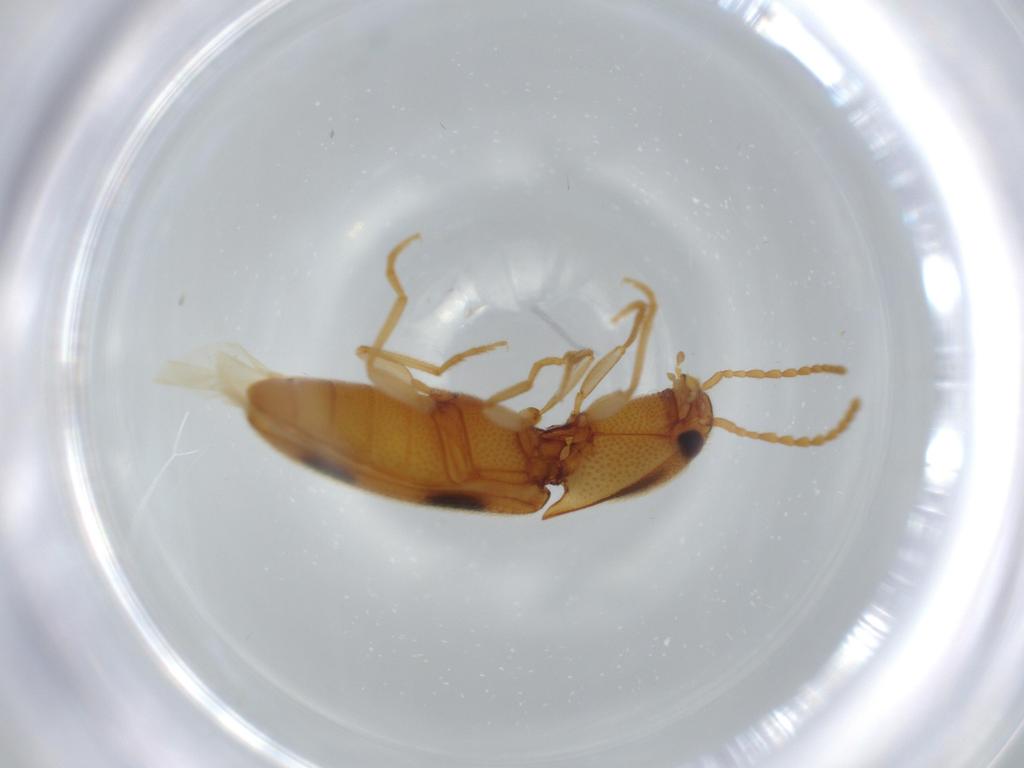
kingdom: Animalia
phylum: Arthropoda
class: Insecta
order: Coleoptera
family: Elateridae
